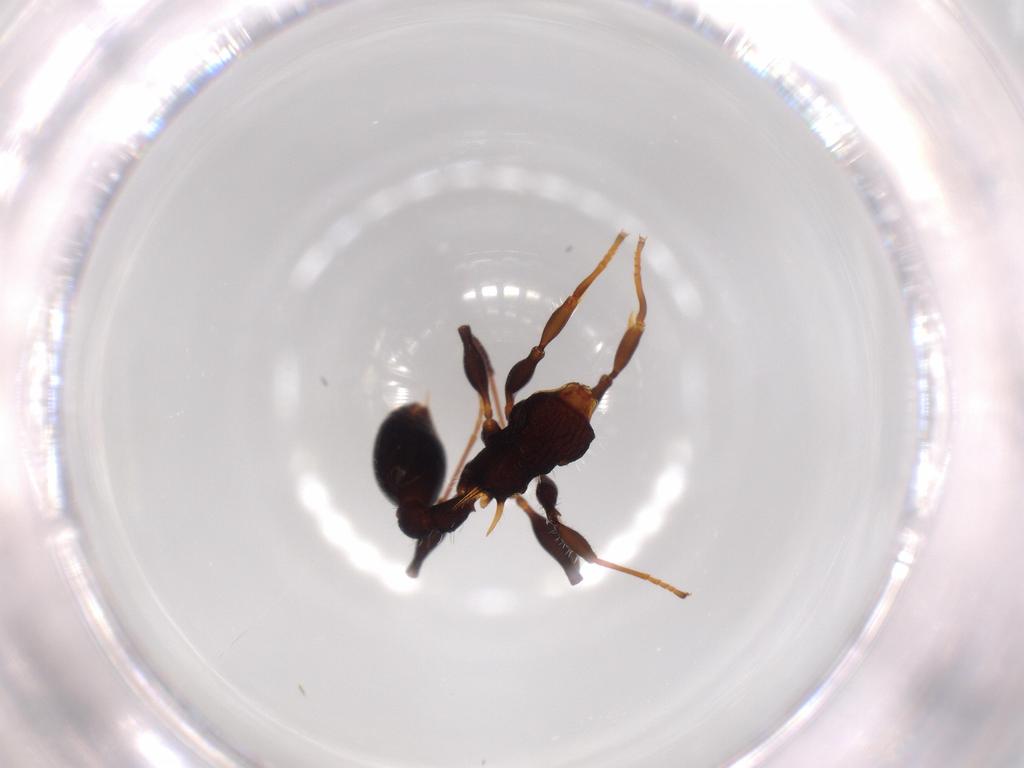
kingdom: Animalia
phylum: Arthropoda
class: Insecta
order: Hymenoptera
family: Formicidae
